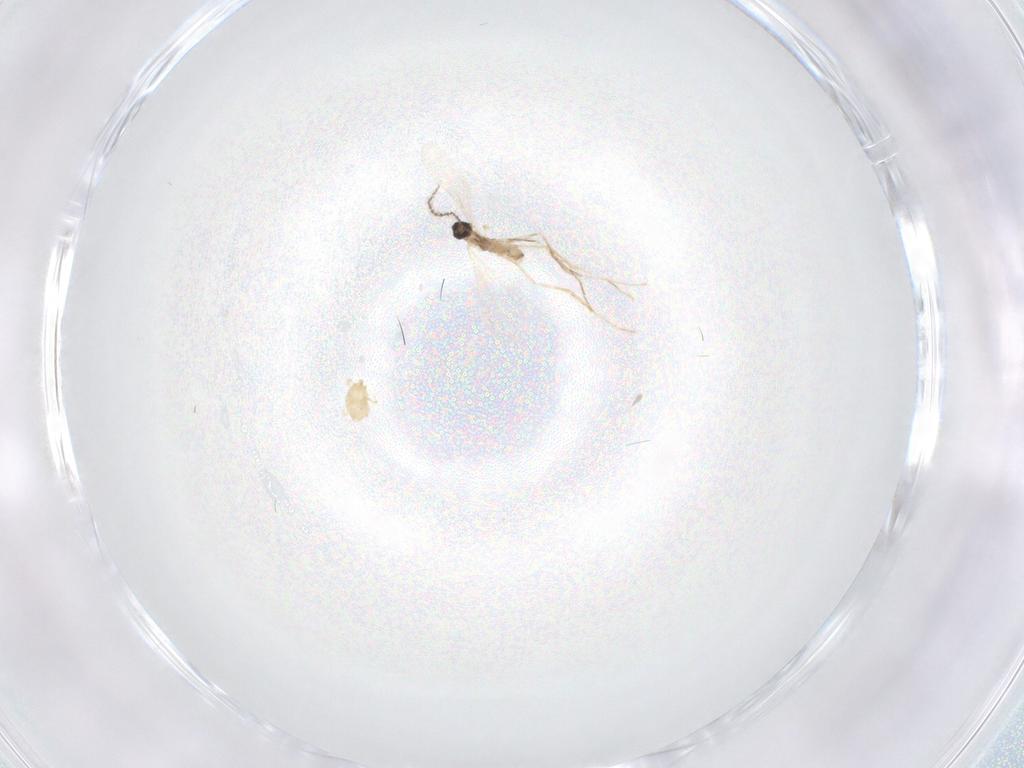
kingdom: Animalia
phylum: Arthropoda
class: Insecta
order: Diptera
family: Cecidomyiidae
